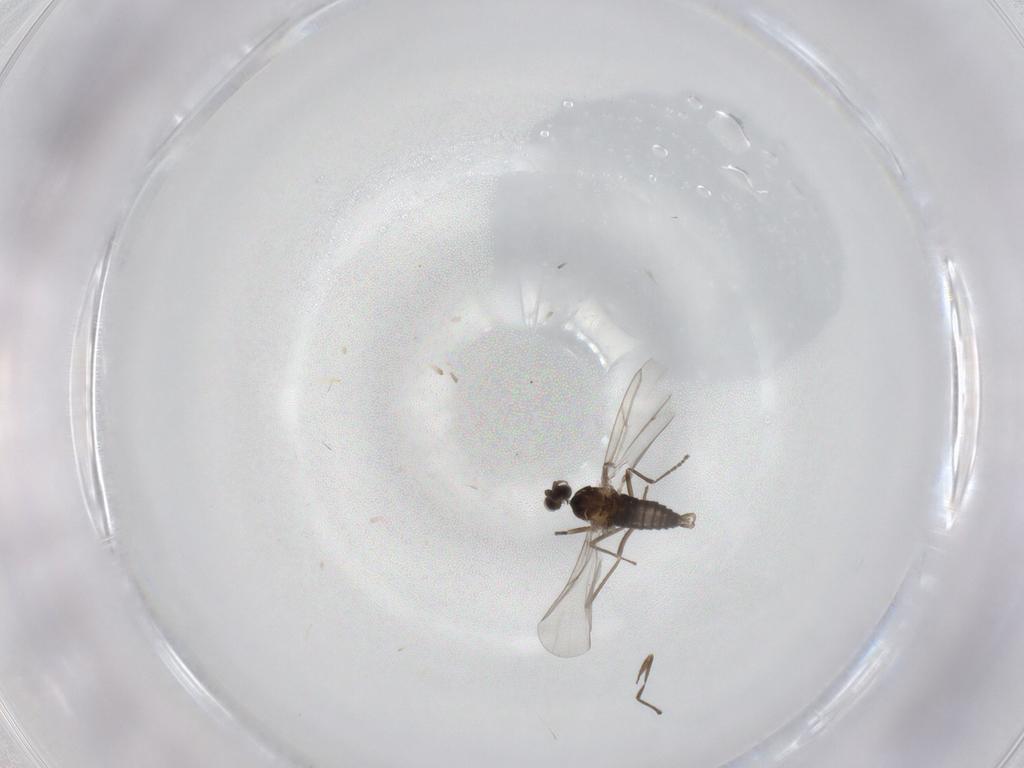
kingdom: Animalia
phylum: Arthropoda
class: Insecta
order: Diptera
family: Cecidomyiidae
